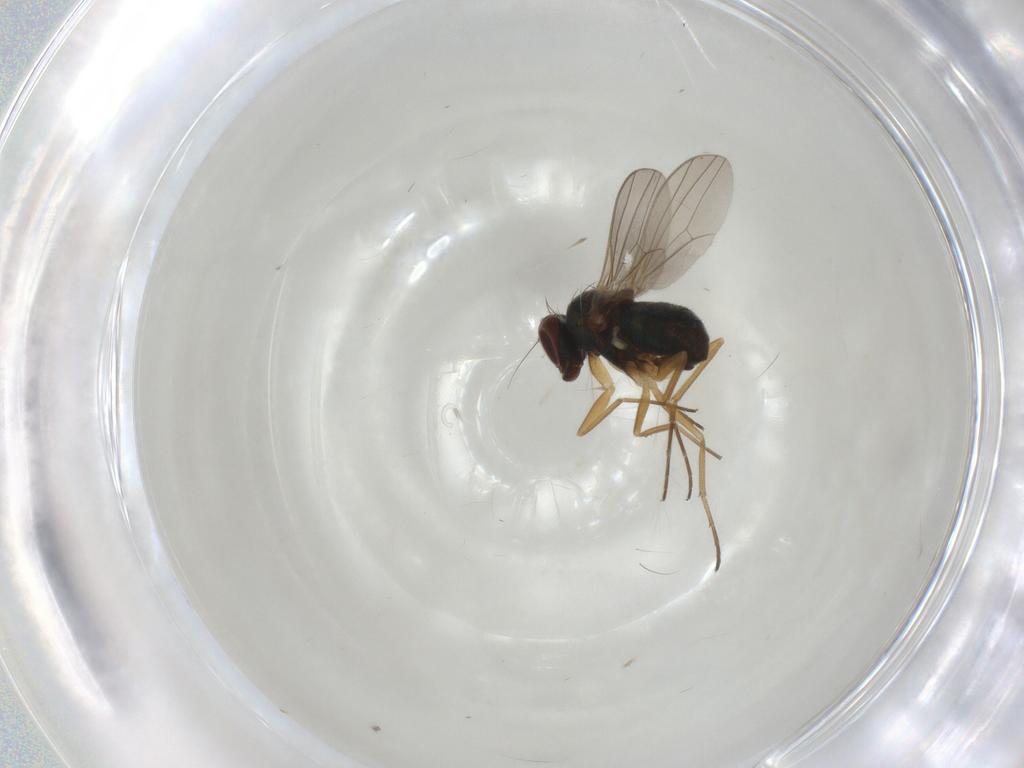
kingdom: Animalia
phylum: Arthropoda
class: Insecta
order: Diptera
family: Dolichopodidae
